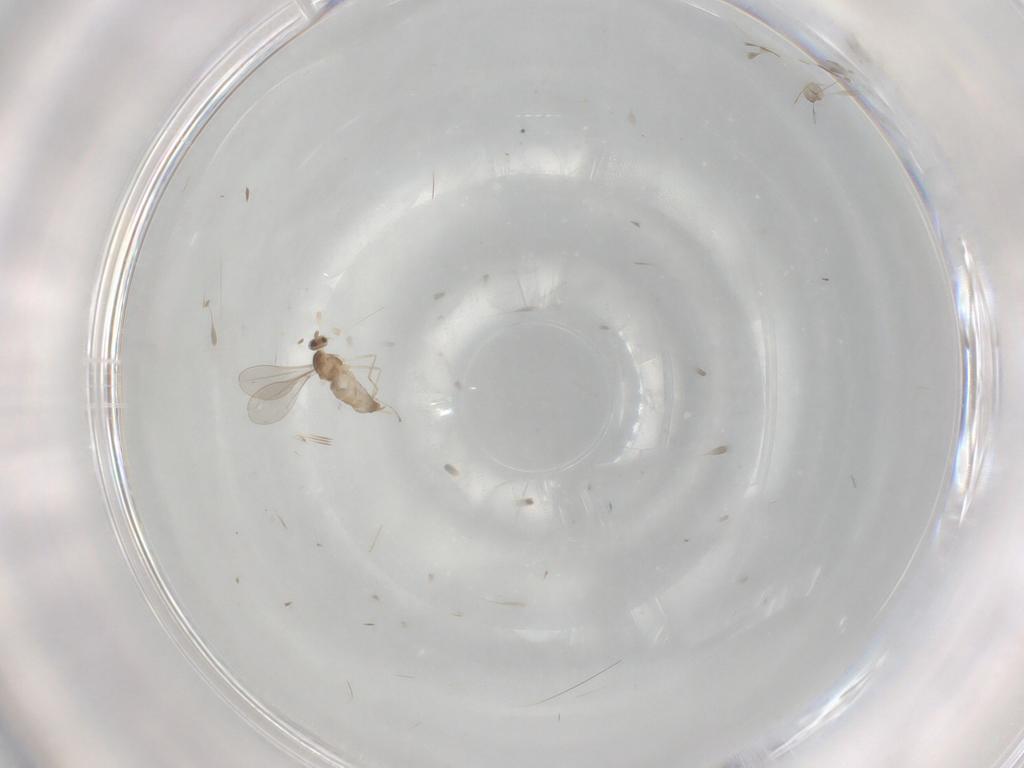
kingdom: Animalia
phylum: Arthropoda
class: Insecta
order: Diptera
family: Cecidomyiidae
